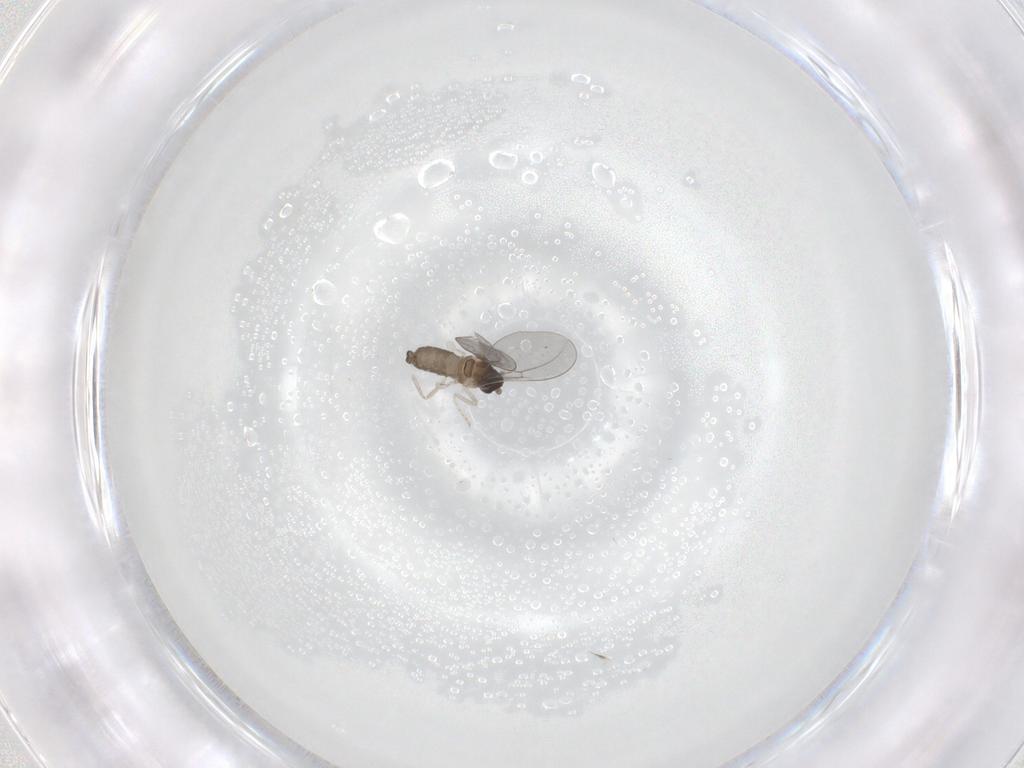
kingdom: Animalia
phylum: Arthropoda
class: Insecta
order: Diptera
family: Cecidomyiidae
